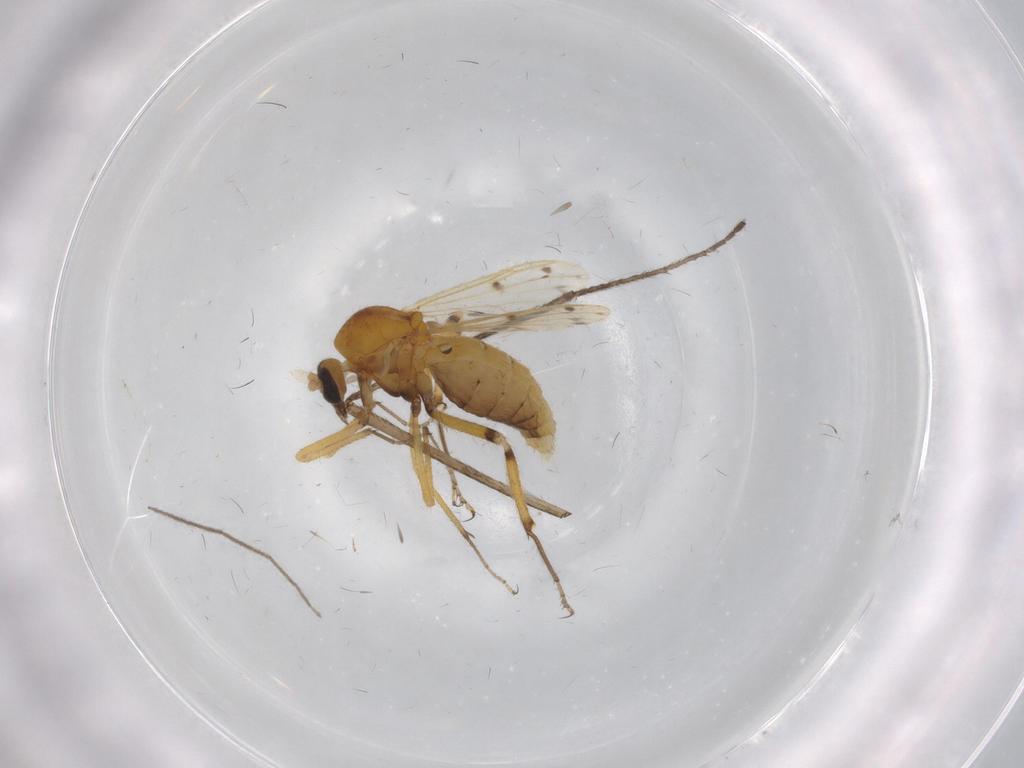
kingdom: Animalia
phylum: Arthropoda
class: Insecta
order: Diptera
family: Agromyzidae
